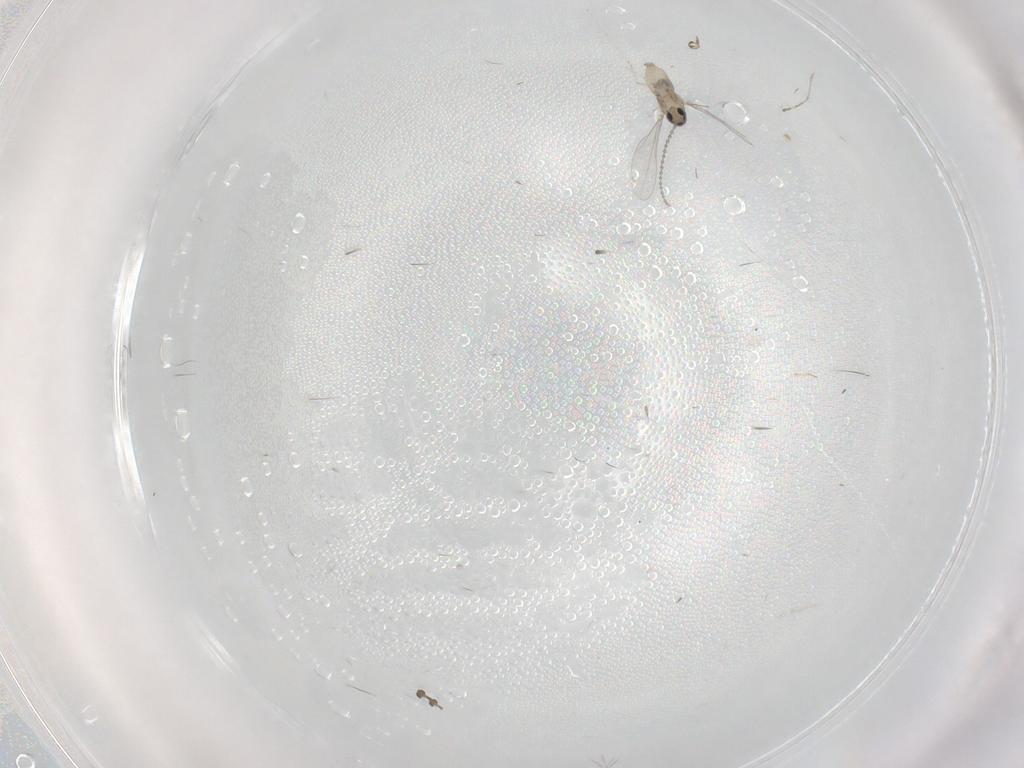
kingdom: Animalia
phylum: Arthropoda
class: Insecta
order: Diptera
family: Cecidomyiidae
